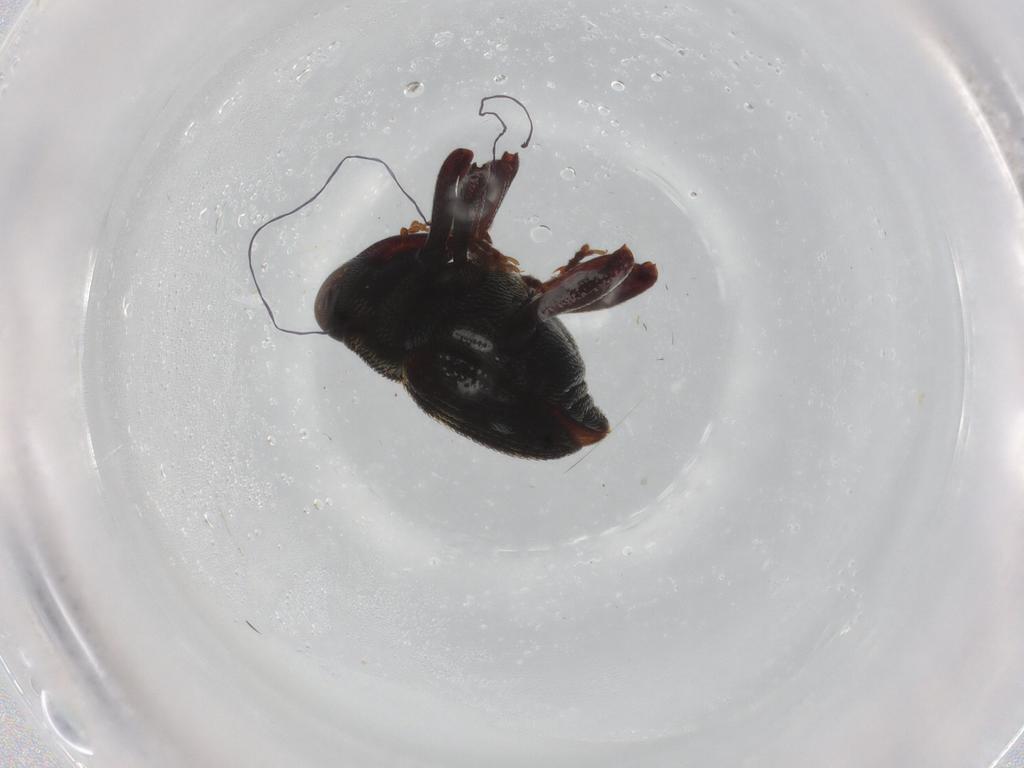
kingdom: Animalia
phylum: Arthropoda
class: Insecta
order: Coleoptera
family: Curculionidae
